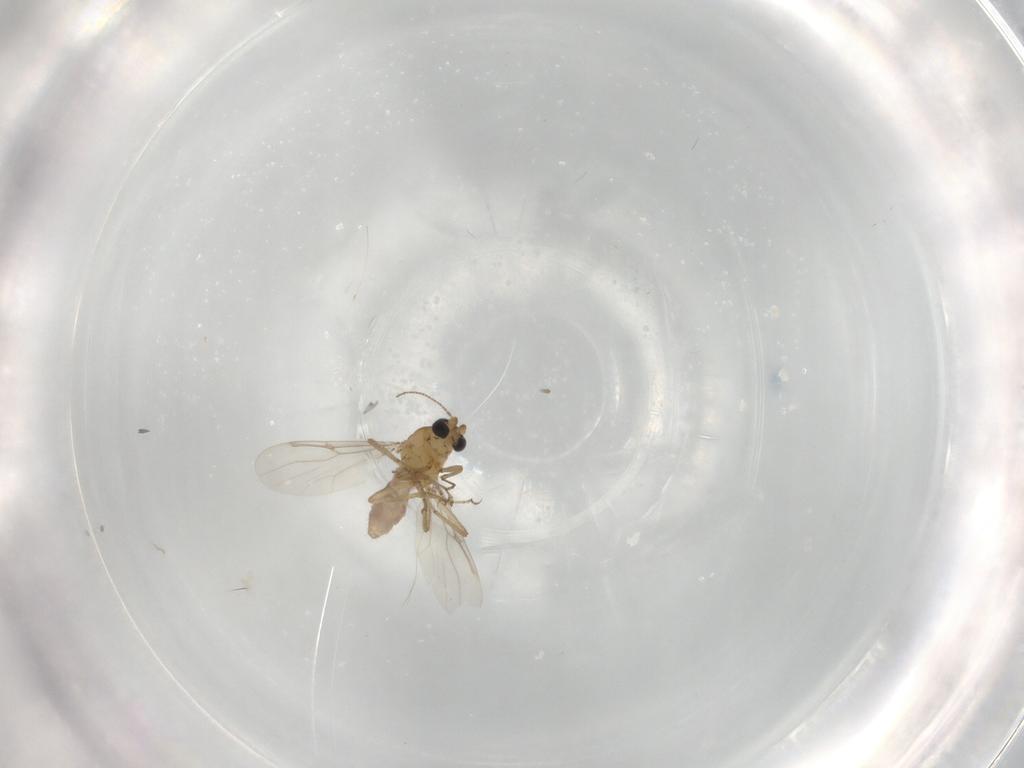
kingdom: Animalia
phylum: Arthropoda
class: Insecta
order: Diptera
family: Ceratopogonidae
